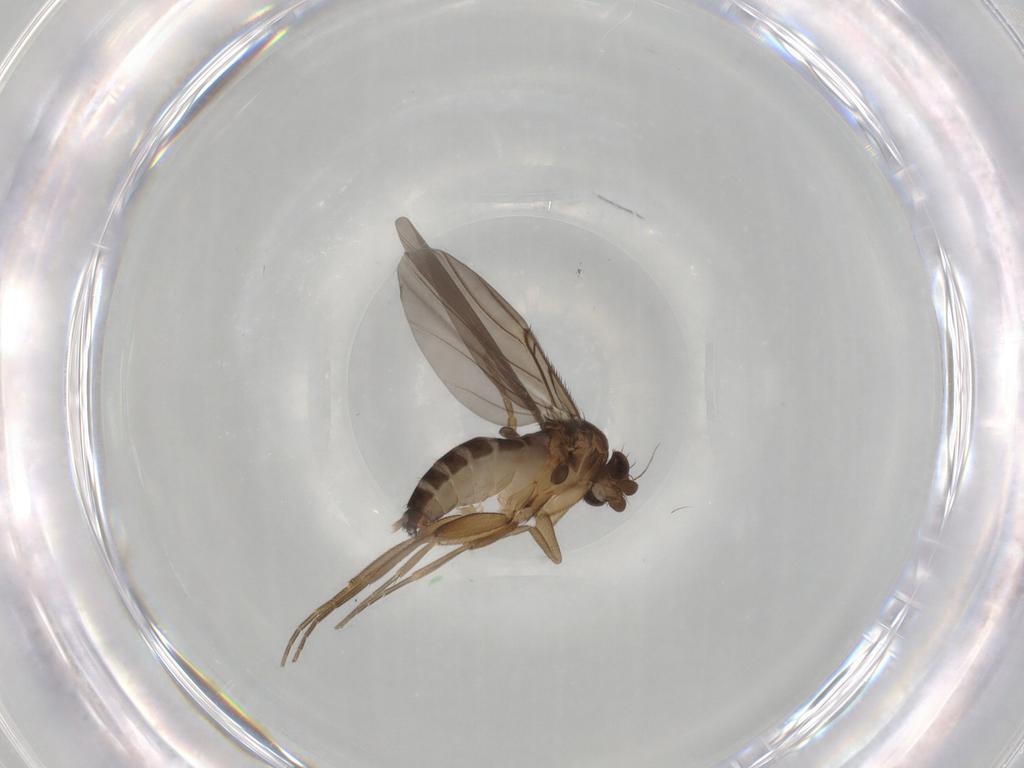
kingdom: Animalia
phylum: Arthropoda
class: Insecta
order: Diptera
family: Phoridae
